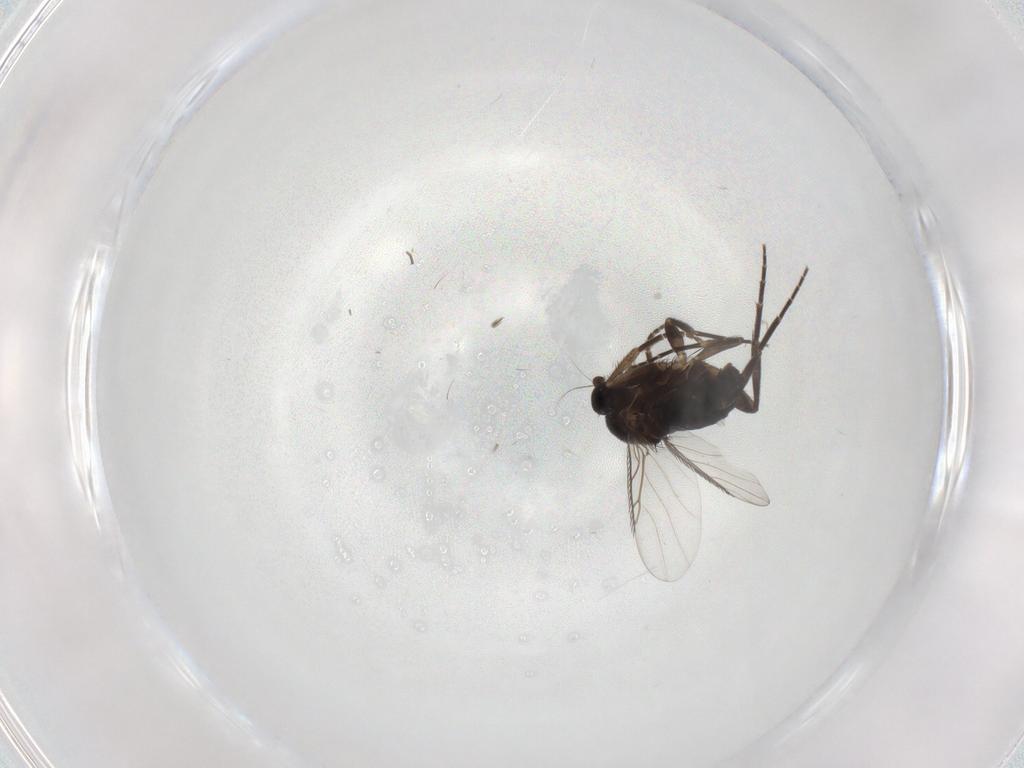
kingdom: Animalia
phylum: Arthropoda
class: Insecta
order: Diptera
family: Phoridae
